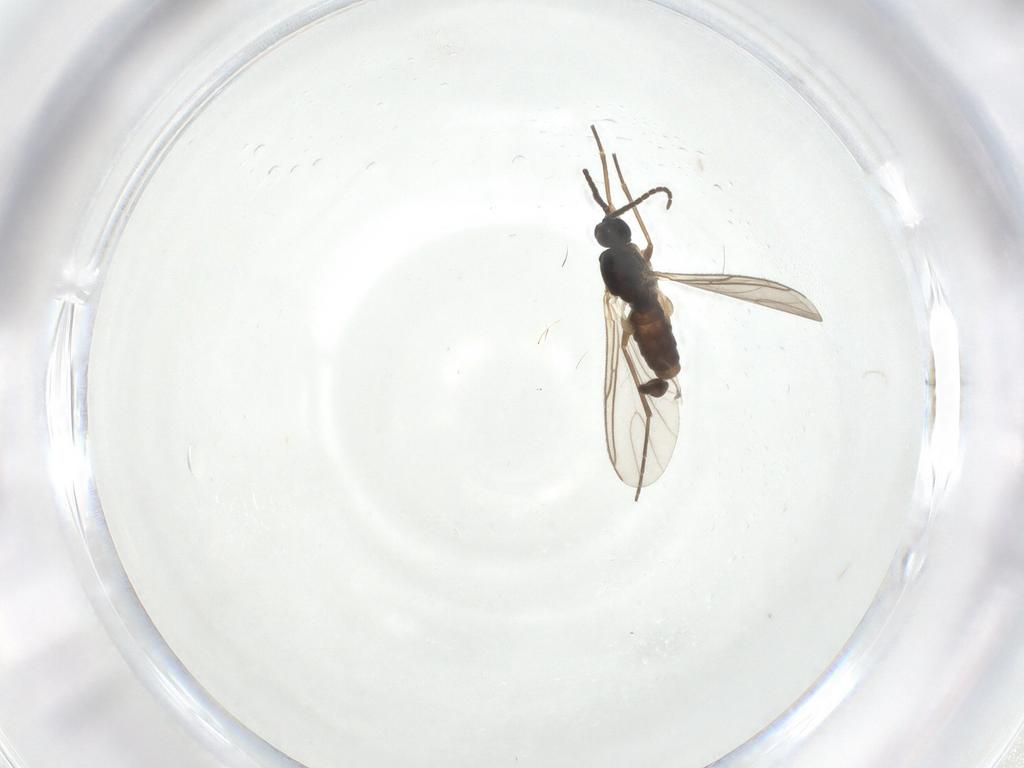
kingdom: Animalia
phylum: Arthropoda
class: Insecta
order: Diptera
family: Sciaridae
